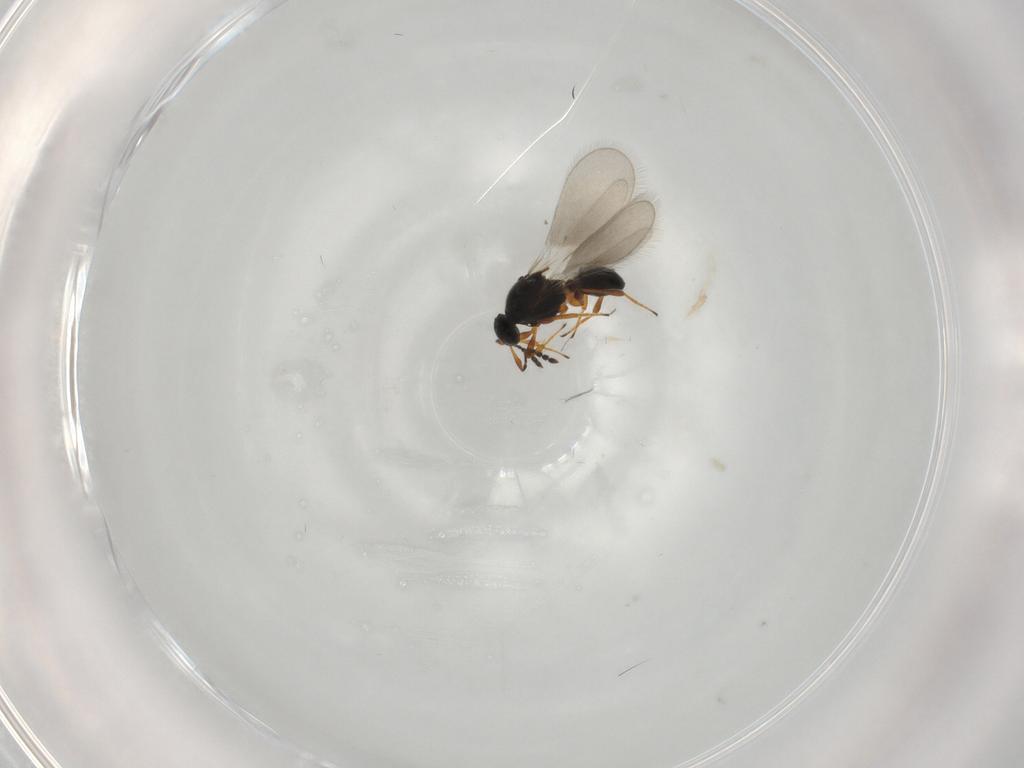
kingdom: Animalia
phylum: Arthropoda
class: Insecta
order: Hymenoptera
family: Platygastridae
